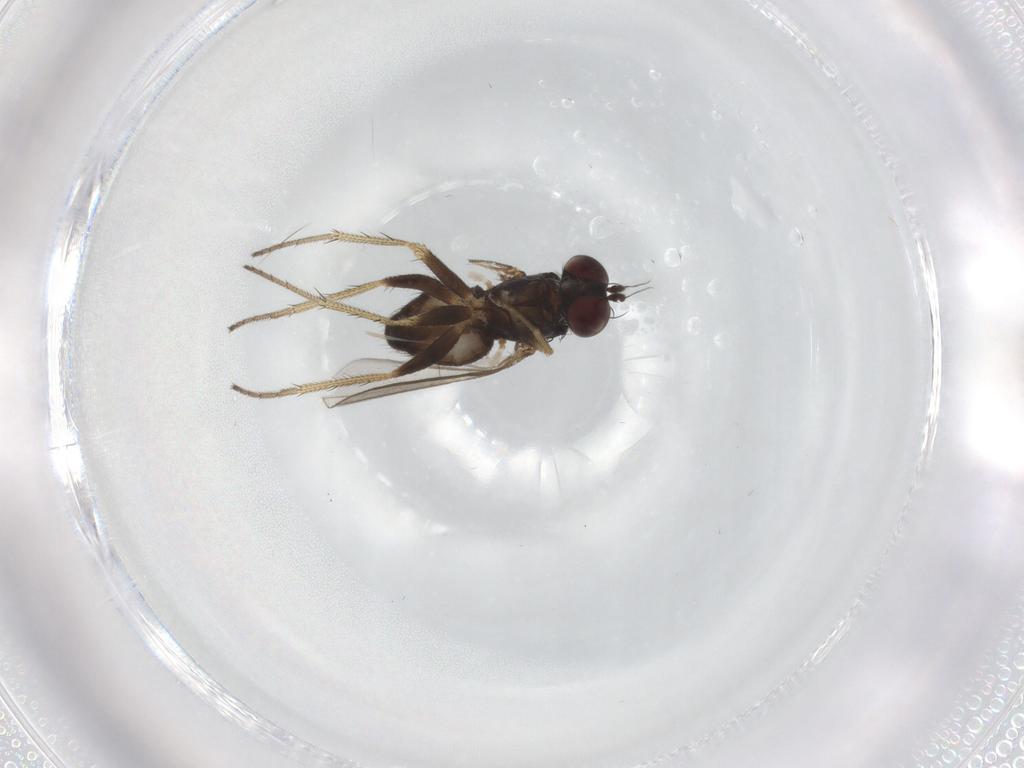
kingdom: Animalia
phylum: Arthropoda
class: Insecta
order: Diptera
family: Dolichopodidae
